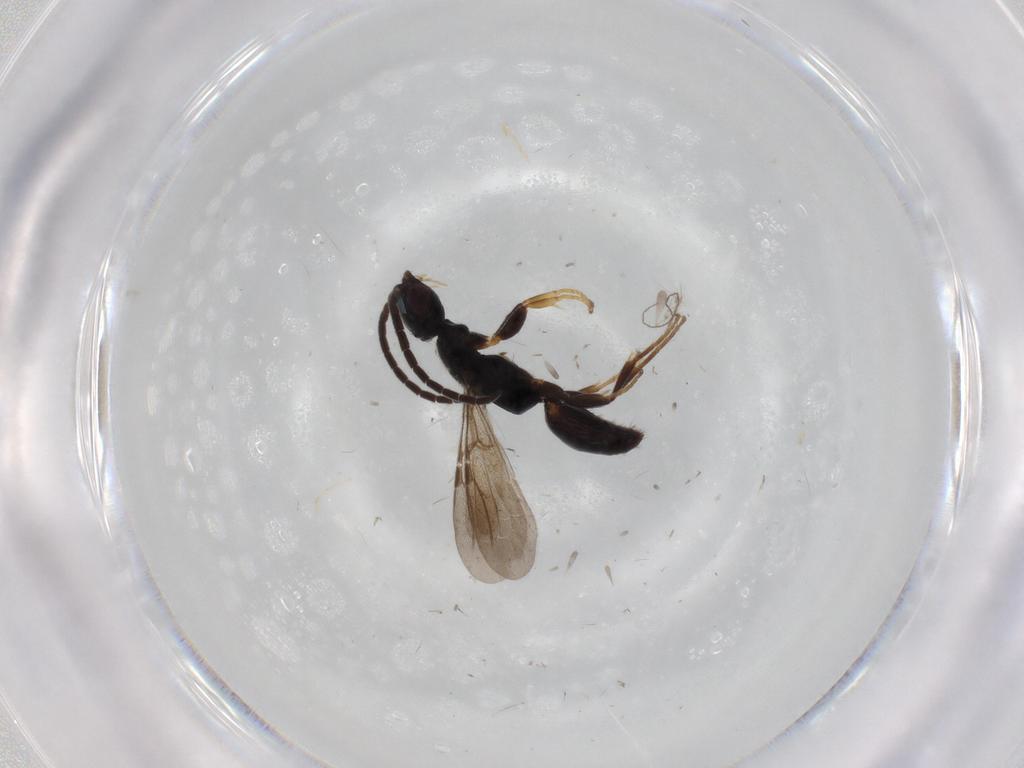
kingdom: Animalia
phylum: Arthropoda
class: Insecta
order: Hymenoptera
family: Bethylidae
